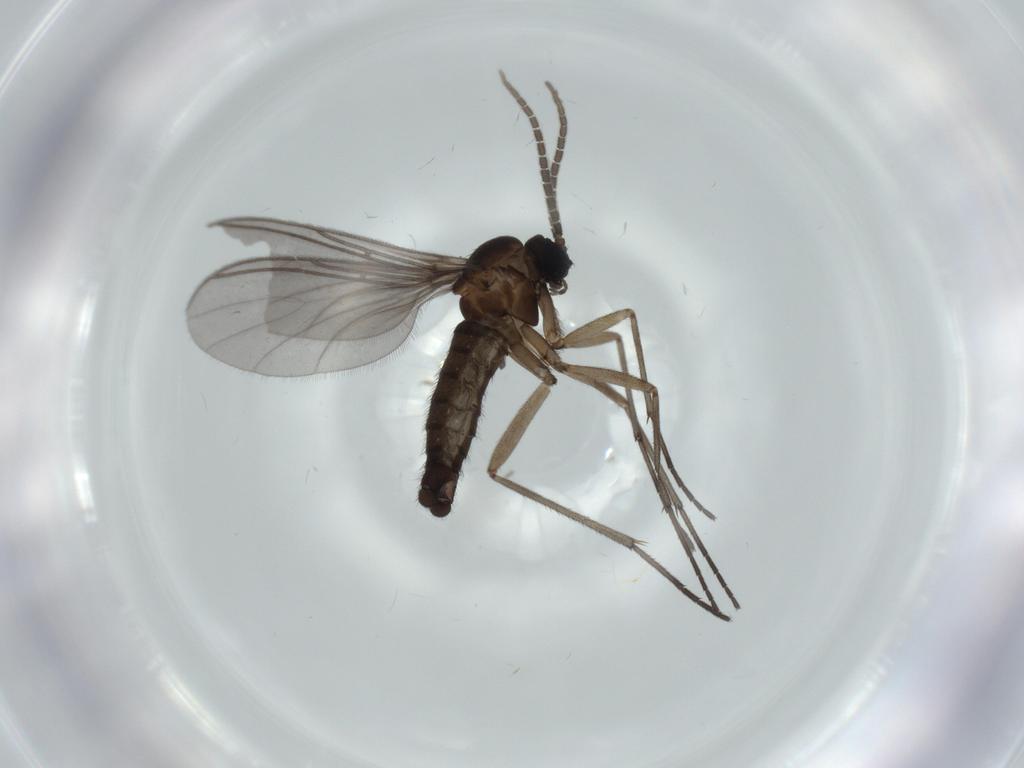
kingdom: Animalia
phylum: Arthropoda
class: Insecta
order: Diptera
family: Sciaridae
